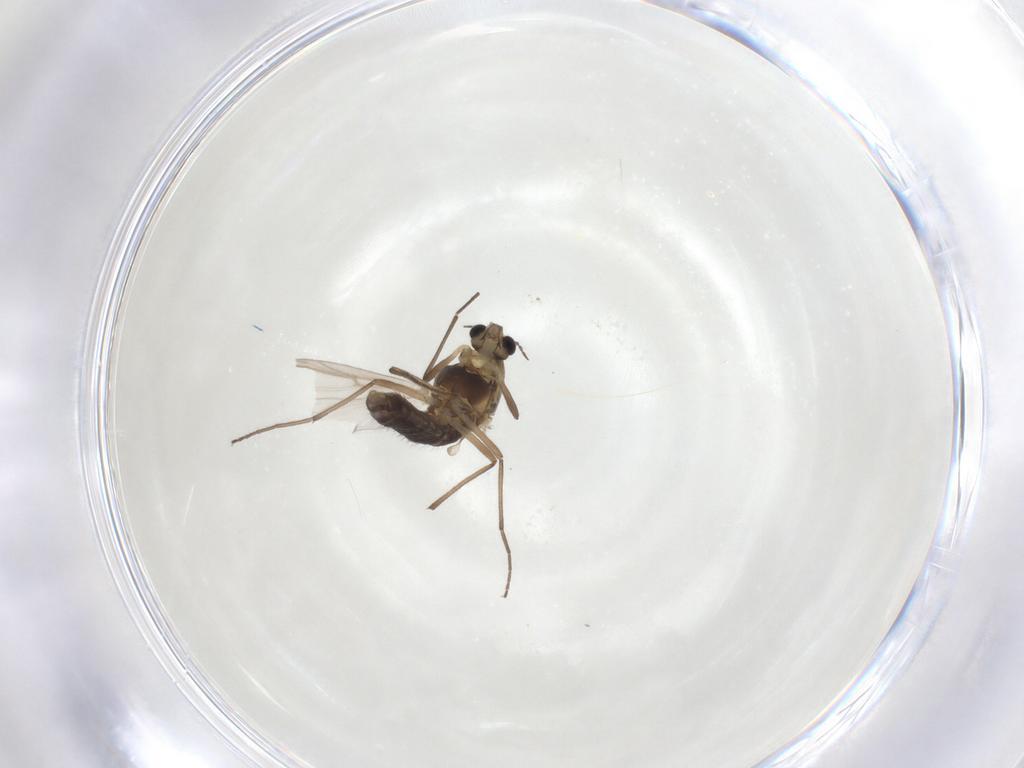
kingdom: Animalia
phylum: Arthropoda
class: Insecta
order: Diptera
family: Chironomidae
